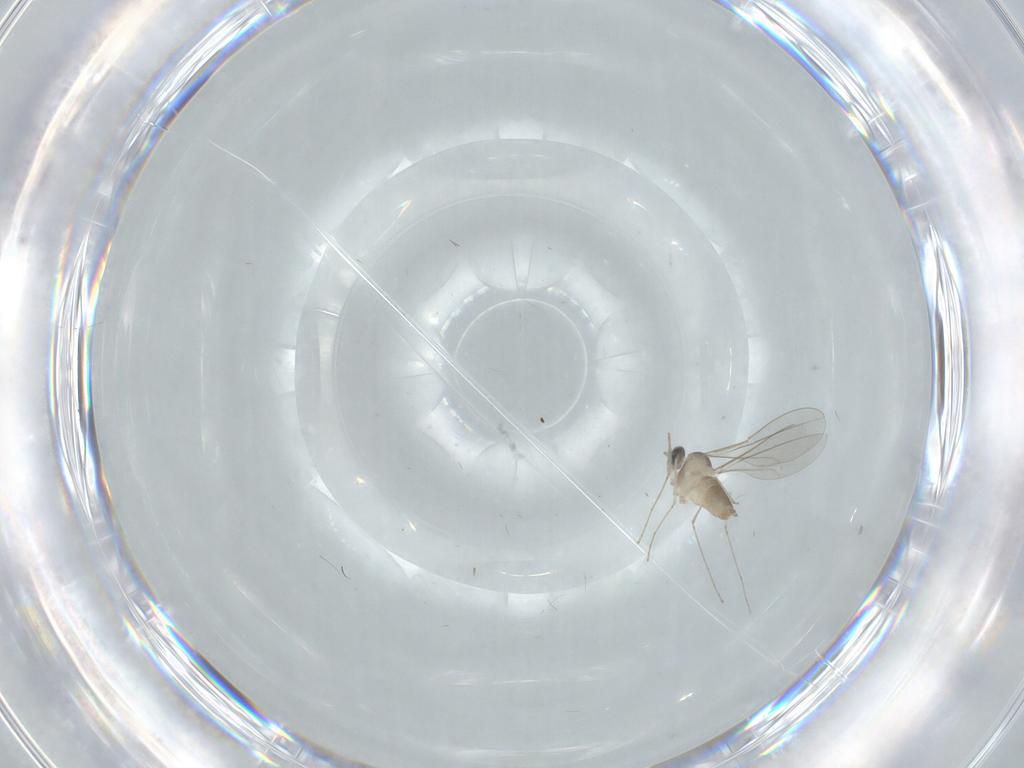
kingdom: Animalia
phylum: Arthropoda
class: Insecta
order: Diptera
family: Cecidomyiidae
